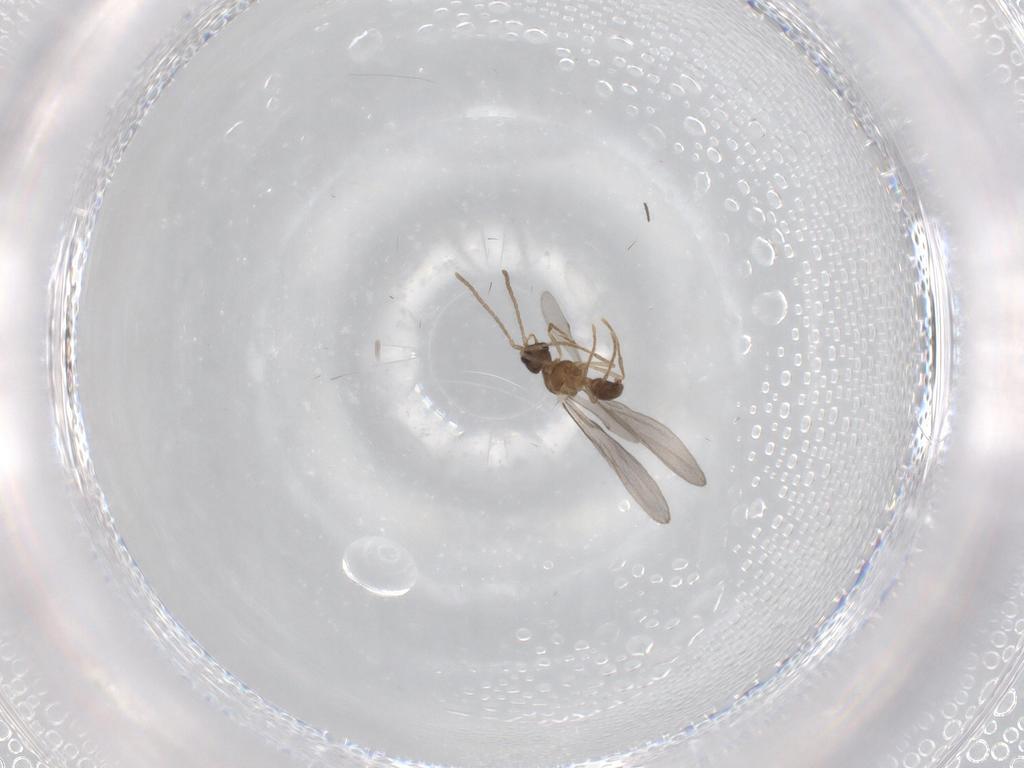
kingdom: Animalia
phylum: Arthropoda
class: Insecta
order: Hymenoptera
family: Formicidae
